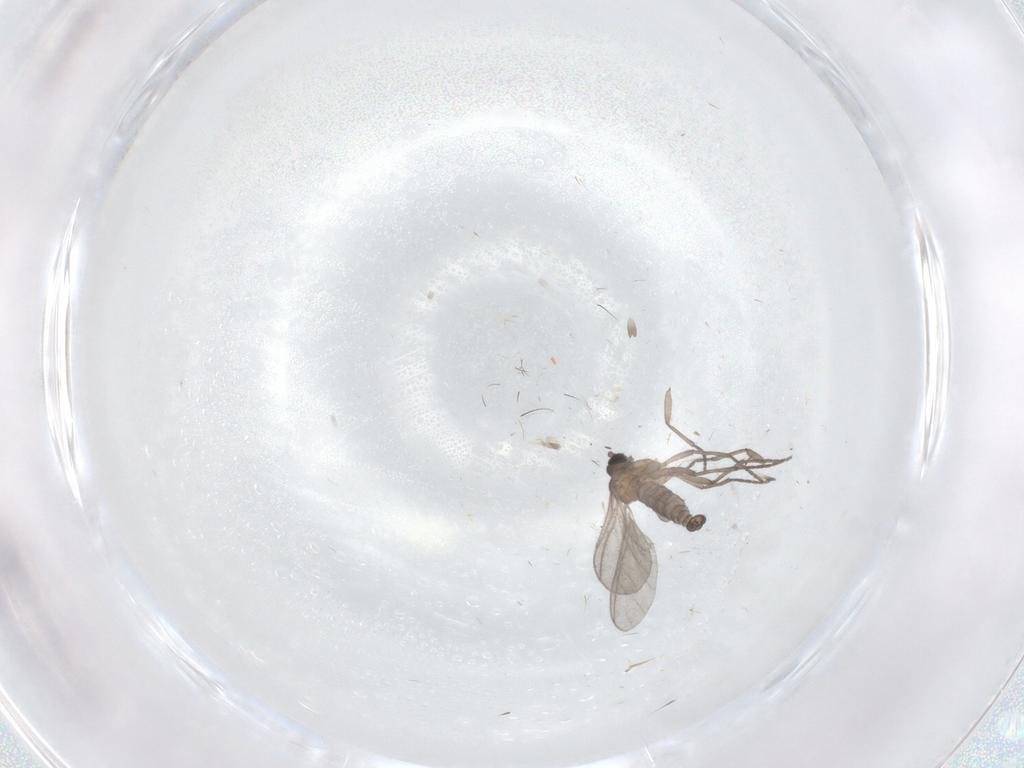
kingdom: Animalia
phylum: Arthropoda
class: Insecta
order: Diptera
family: Sciaridae
